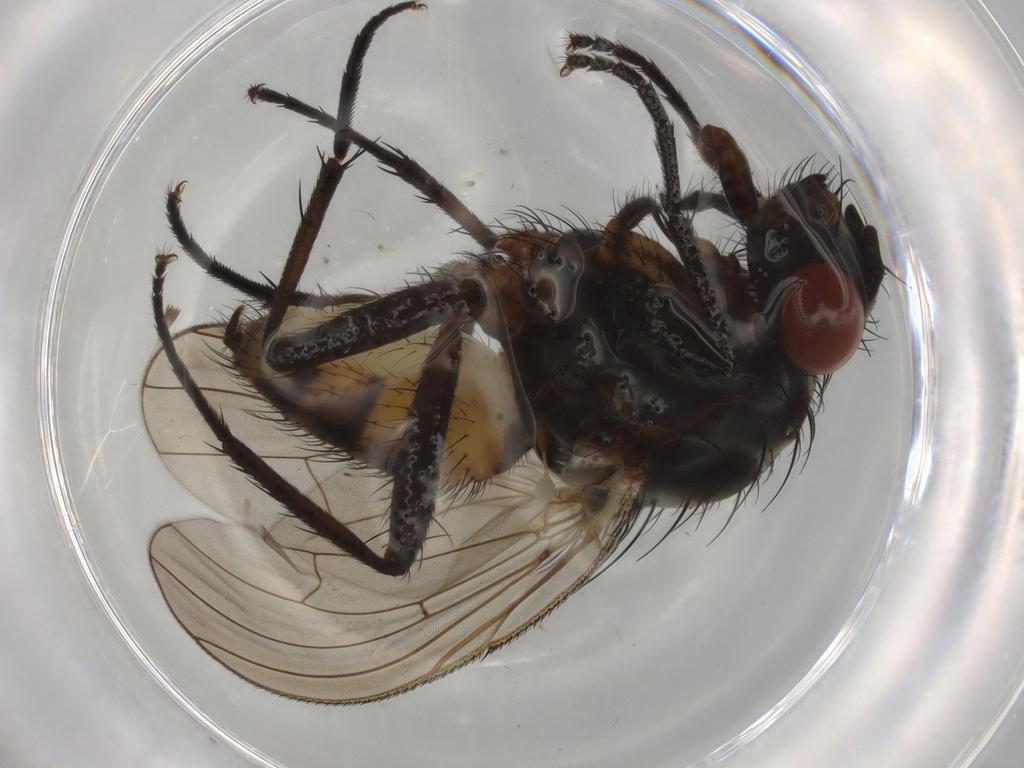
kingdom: Animalia
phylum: Arthropoda
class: Insecta
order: Diptera
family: Anthomyiidae
